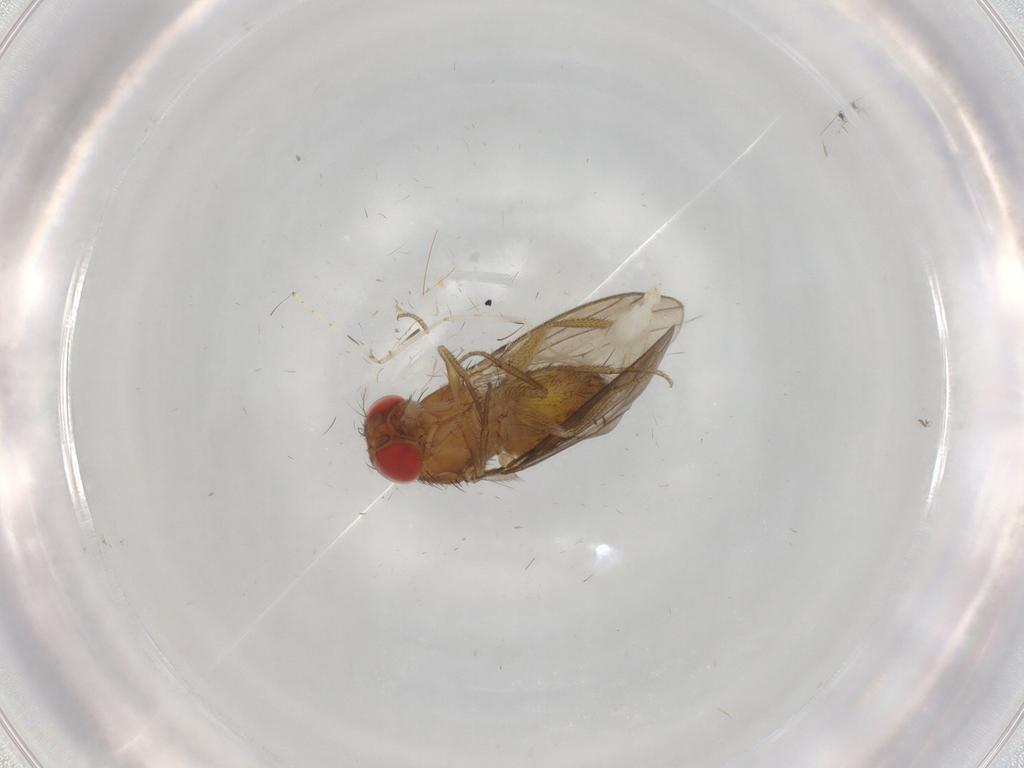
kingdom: Animalia
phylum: Arthropoda
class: Insecta
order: Diptera
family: Drosophilidae
